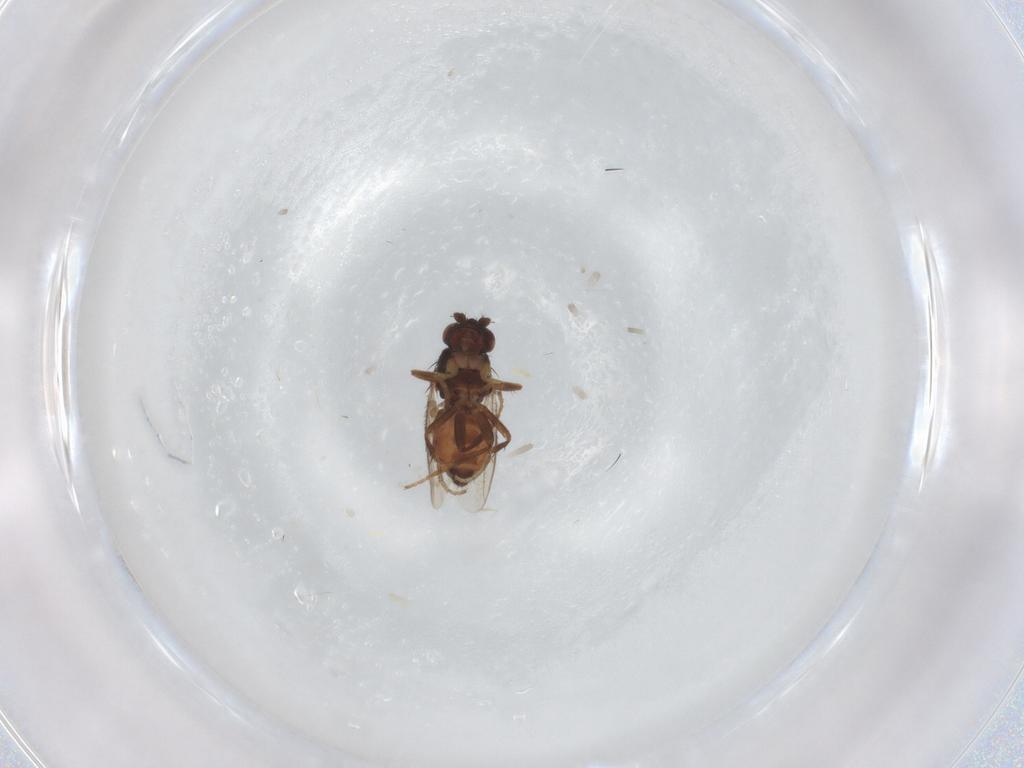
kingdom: Animalia
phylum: Arthropoda
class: Insecta
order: Diptera
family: Sphaeroceridae
